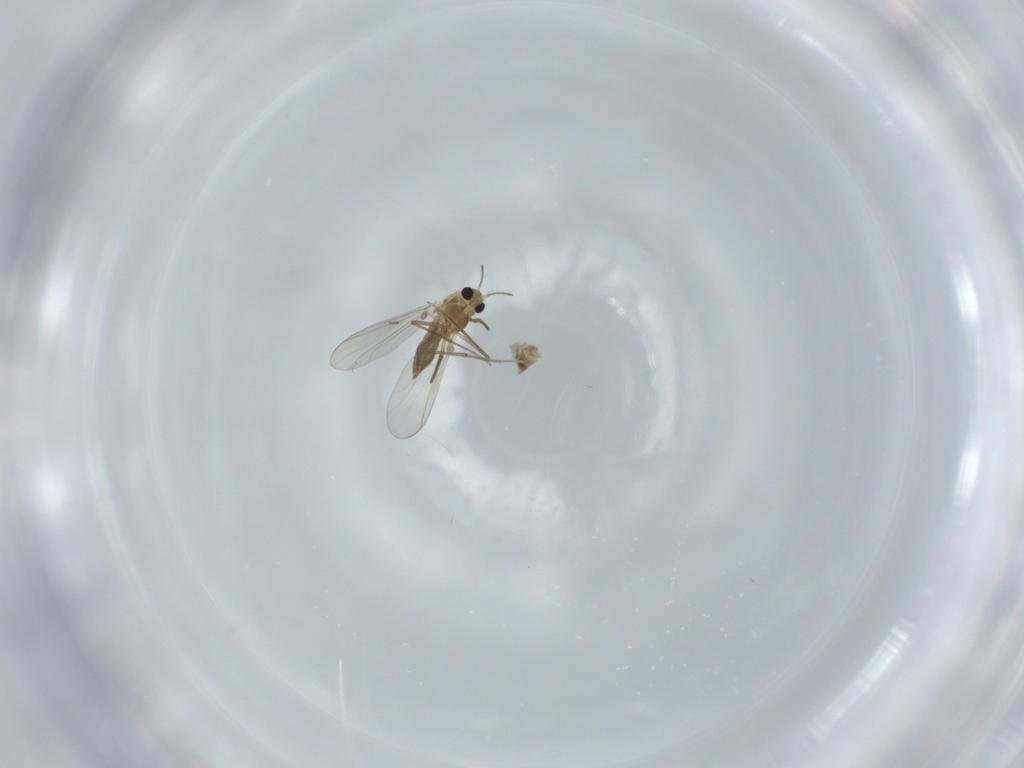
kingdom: Animalia
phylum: Arthropoda
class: Insecta
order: Diptera
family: Chironomidae
